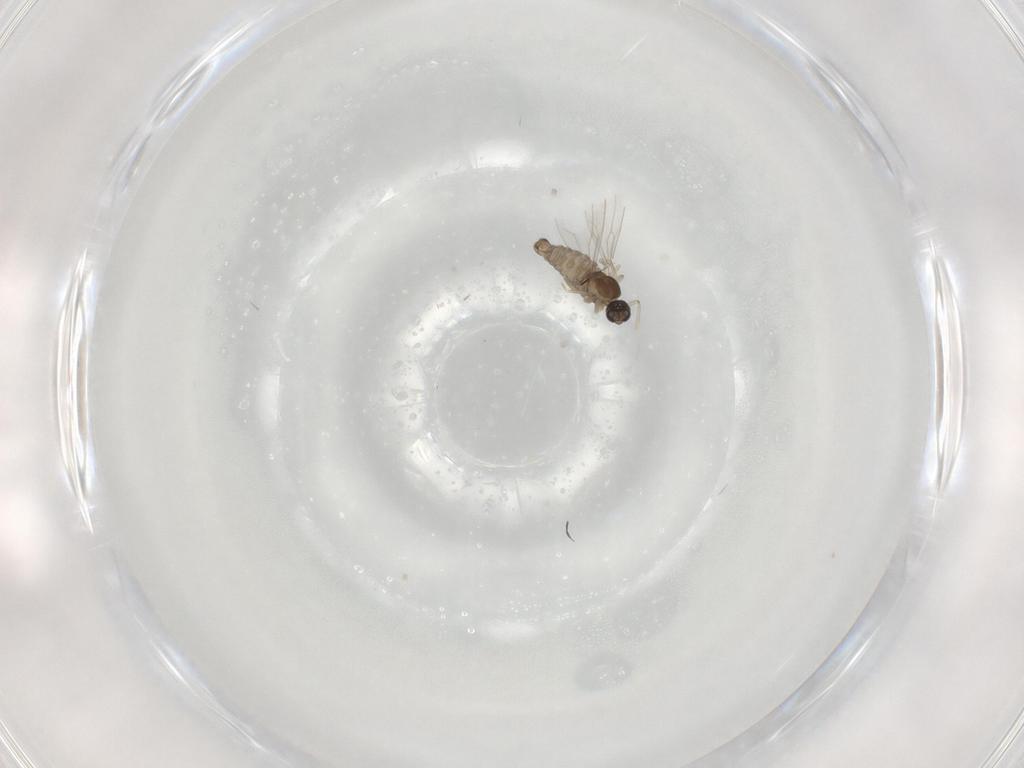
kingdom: Animalia
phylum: Arthropoda
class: Insecta
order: Diptera
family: Cecidomyiidae
